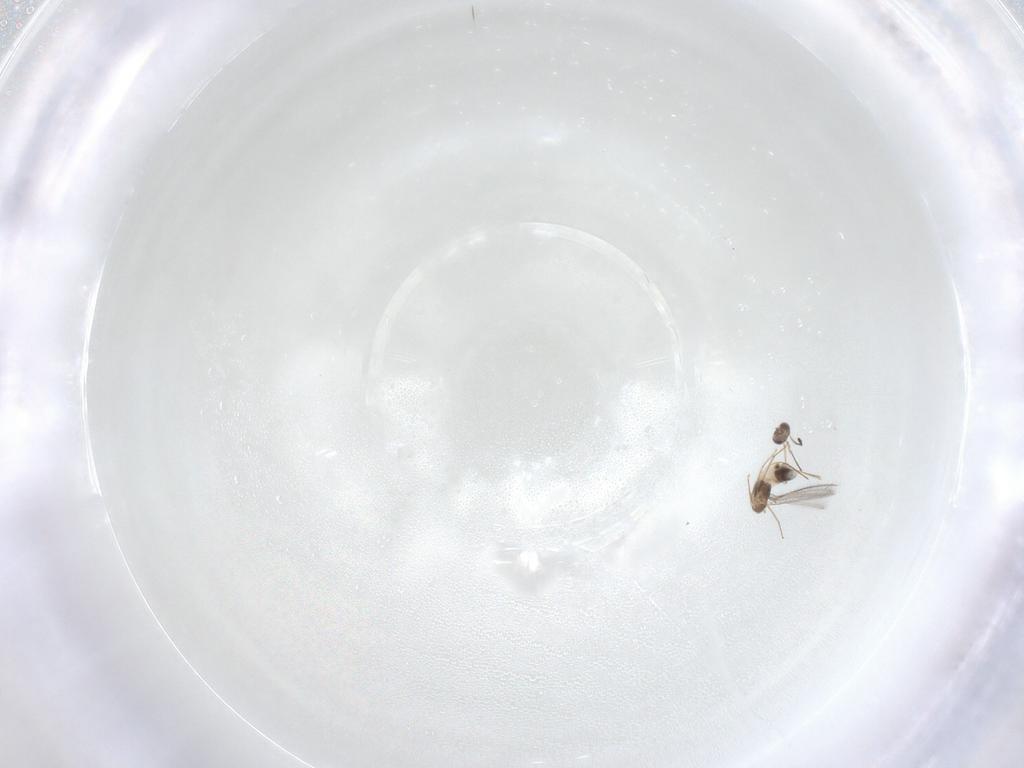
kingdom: Animalia
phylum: Arthropoda
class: Insecta
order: Hymenoptera
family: Mymaridae
